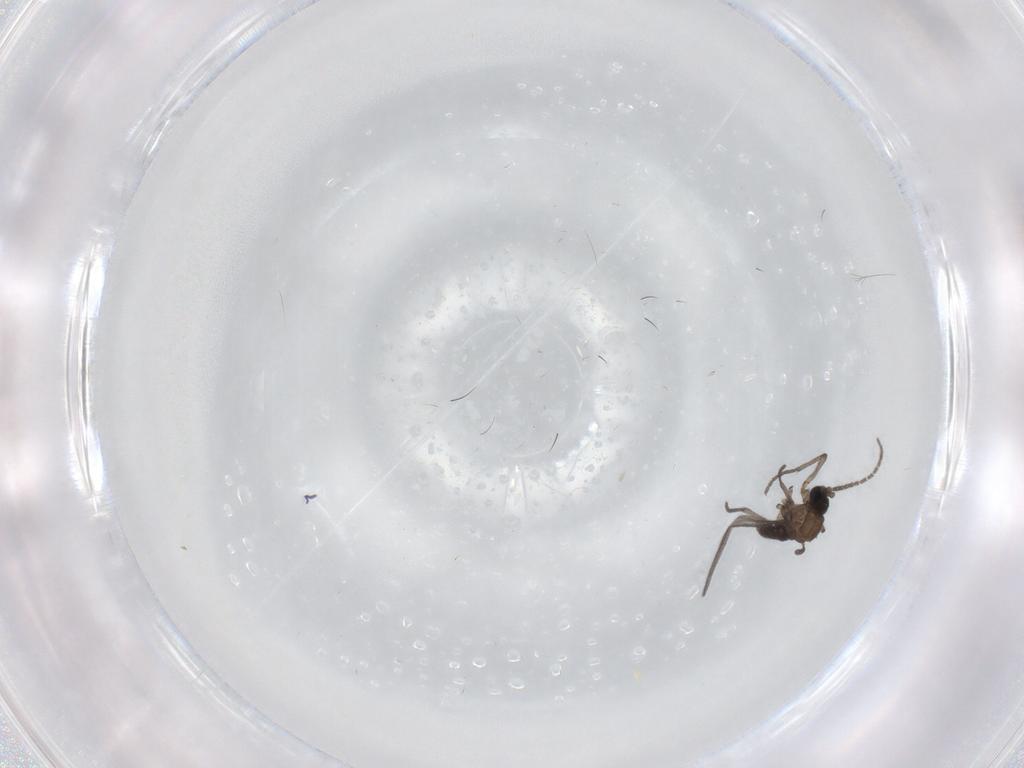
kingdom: Animalia
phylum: Arthropoda
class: Insecta
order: Diptera
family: Sciaridae
